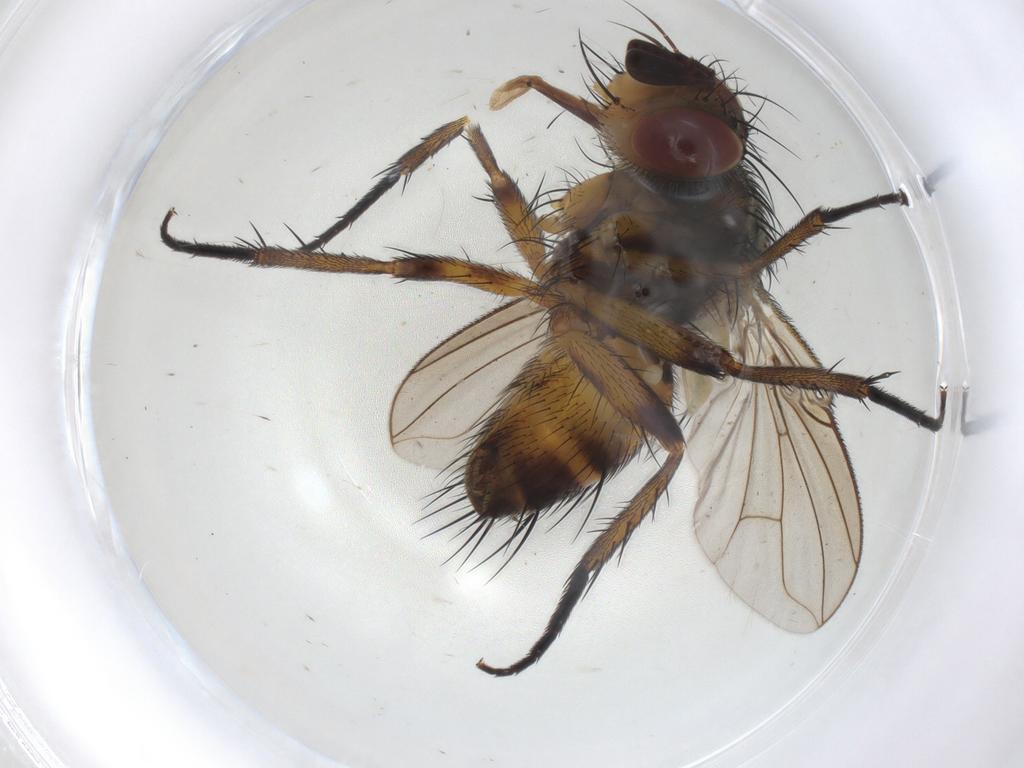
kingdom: Animalia
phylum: Arthropoda
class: Insecta
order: Diptera
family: Tachinidae
